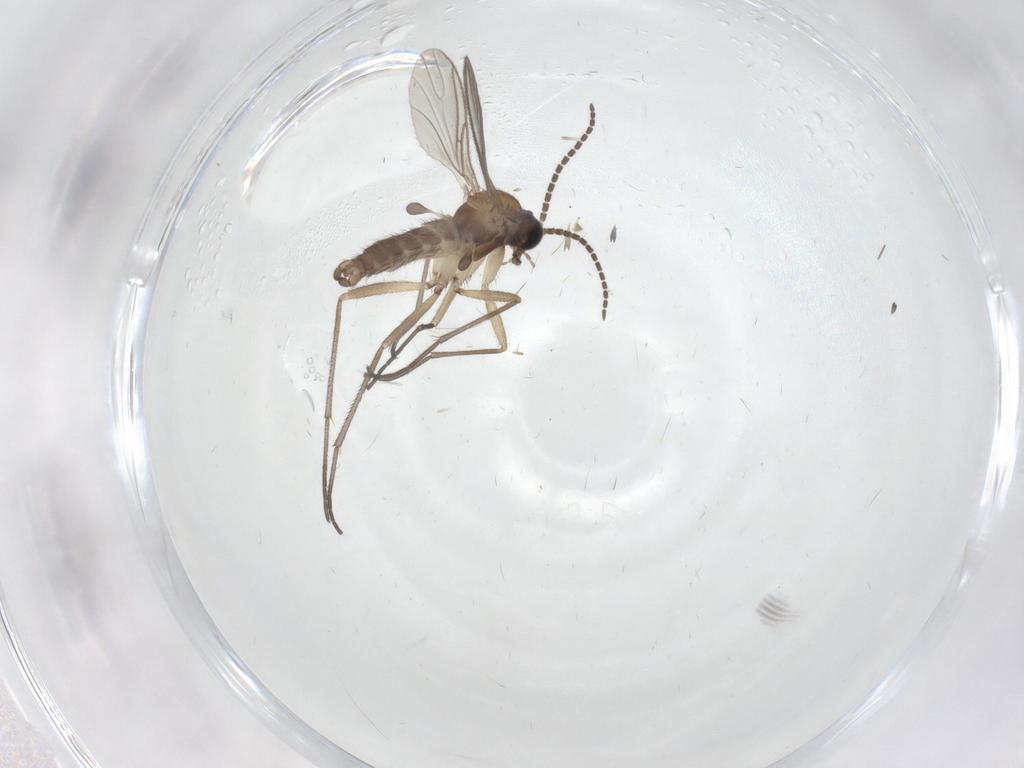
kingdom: Animalia
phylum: Arthropoda
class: Insecta
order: Diptera
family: Sciaridae
